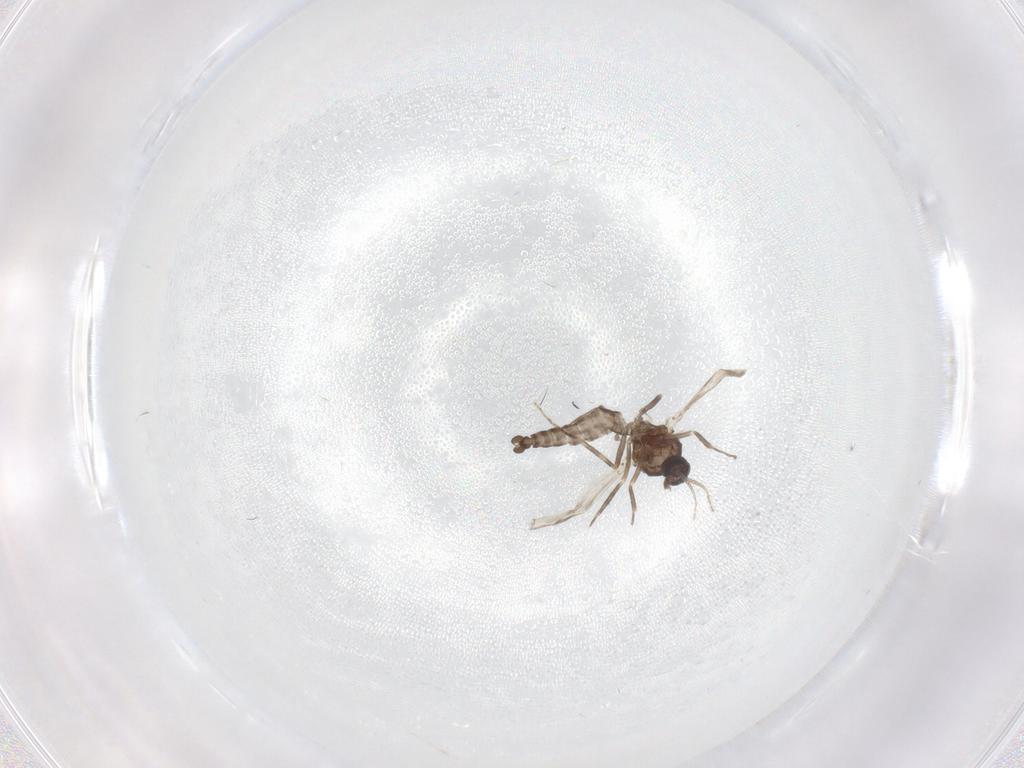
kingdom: Animalia
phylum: Arthropoda
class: Insecta
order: Diptera
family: Ceratopogonidae
